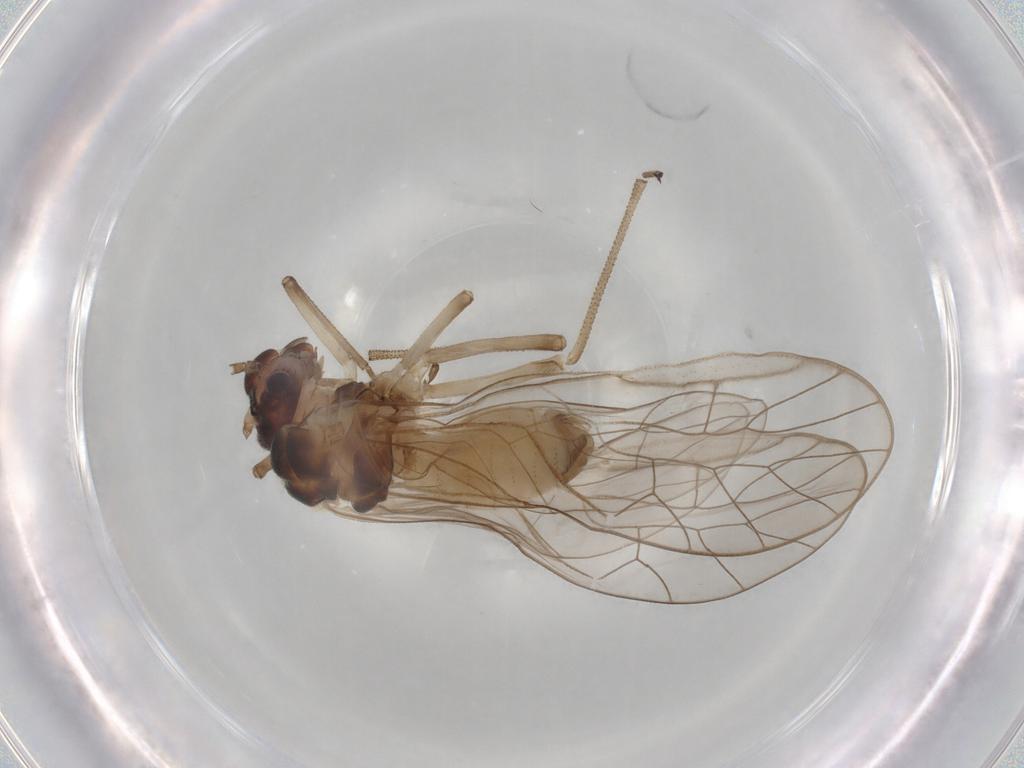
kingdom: Animalia
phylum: Arthropoda
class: Insecta
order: Psocodea
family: Stenopsocidae
